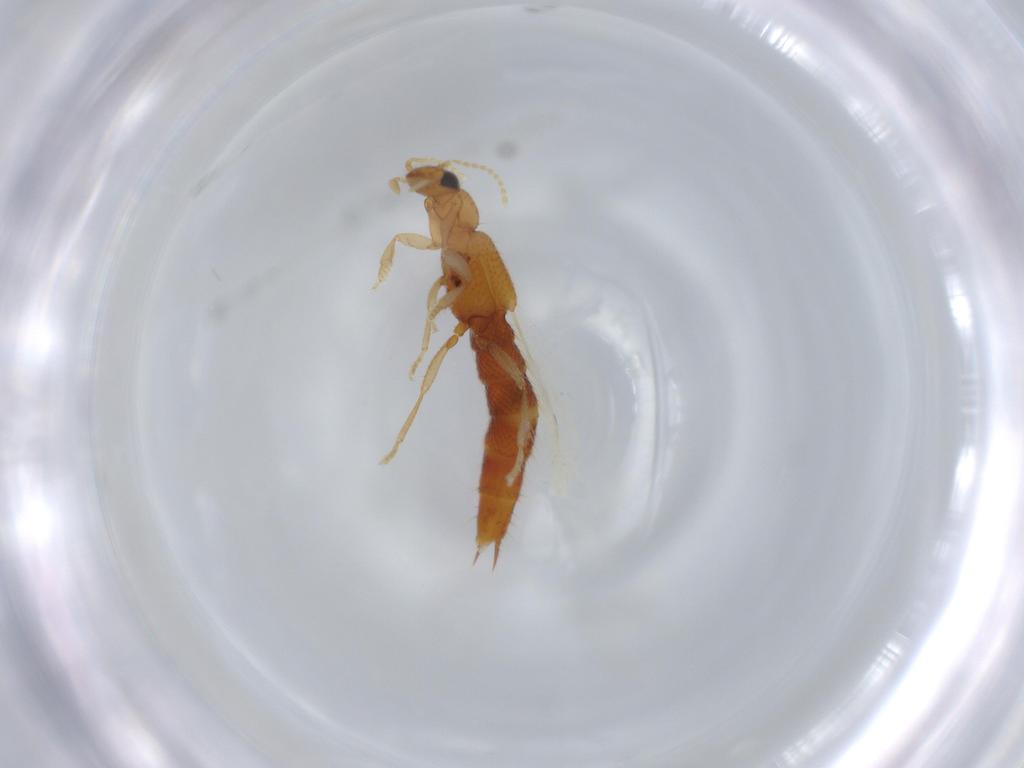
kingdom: Animalia
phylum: Arthropoda
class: Insecta
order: Coleoptera
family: Staphylinidae
